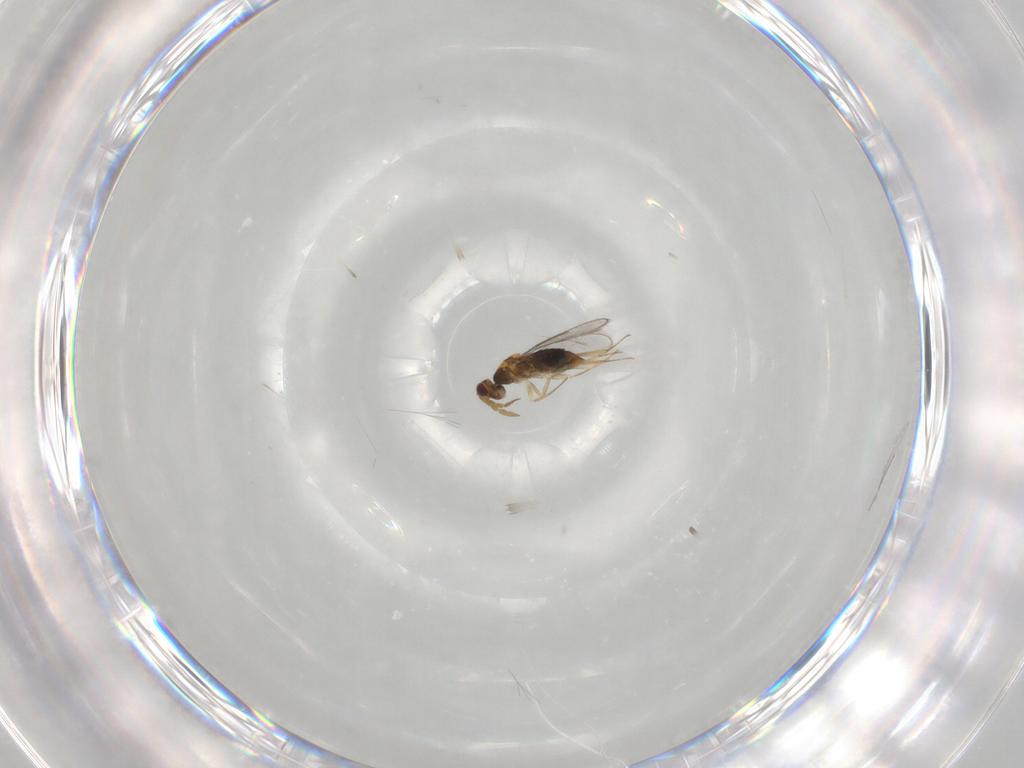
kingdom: Animalia
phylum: Arthropoda
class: Insecta
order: Hymenoptera
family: Aphelinidae
